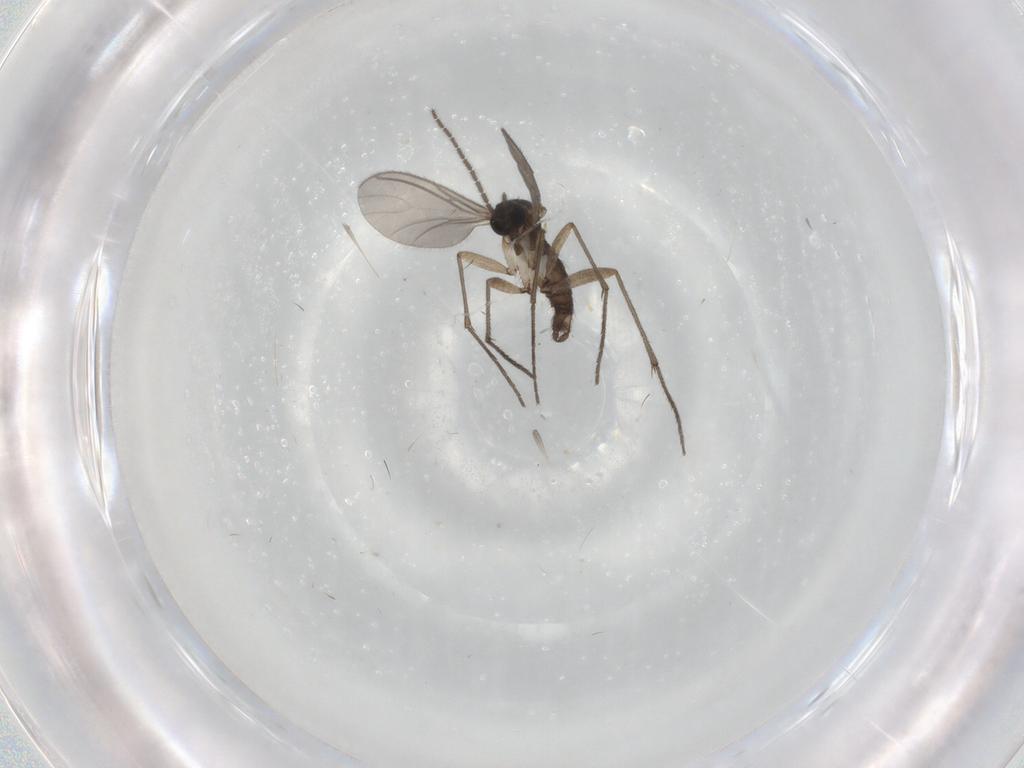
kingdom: Animalia
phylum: Arthropoda
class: Insecta
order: Diptera
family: Sciaridae
